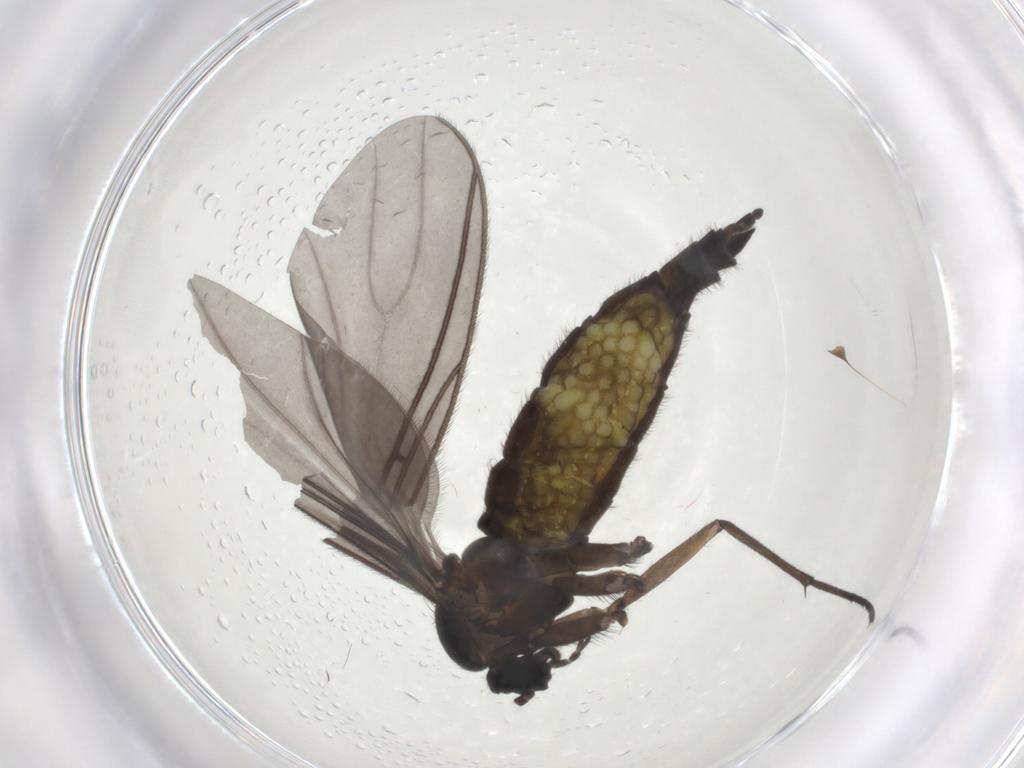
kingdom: Animalia
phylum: Arthropoda
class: Insecta
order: Diptera
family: Sciaridae
